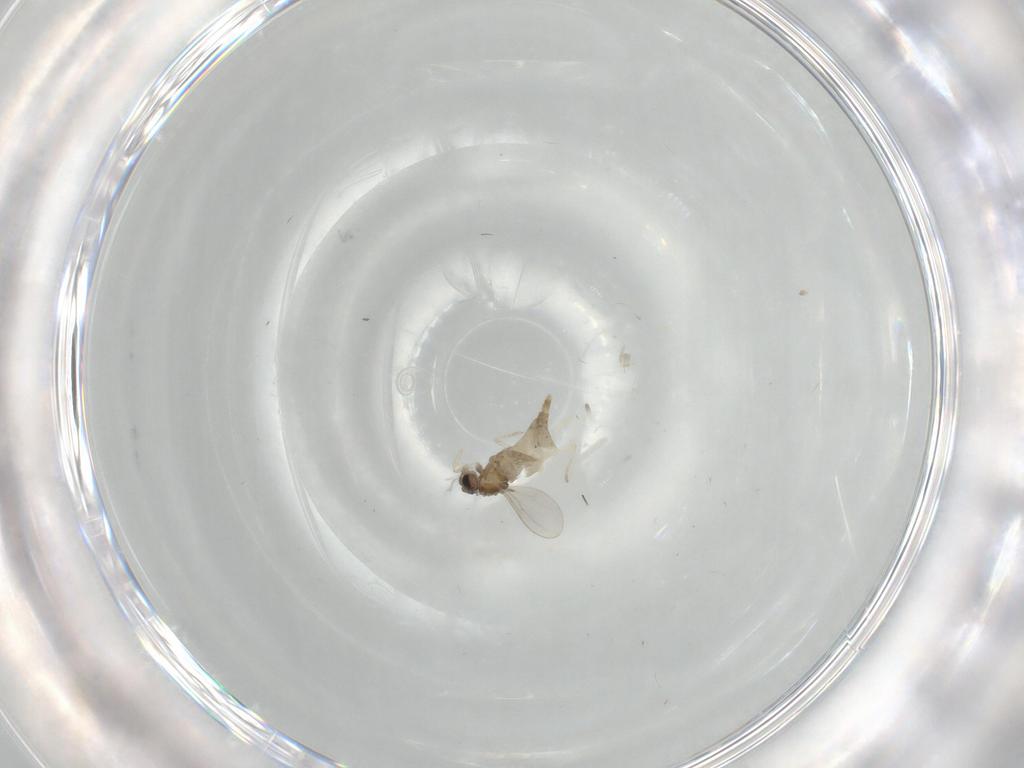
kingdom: Animalia
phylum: Arthropoda
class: Insecta
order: Diptera
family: Cecidomyiidae
